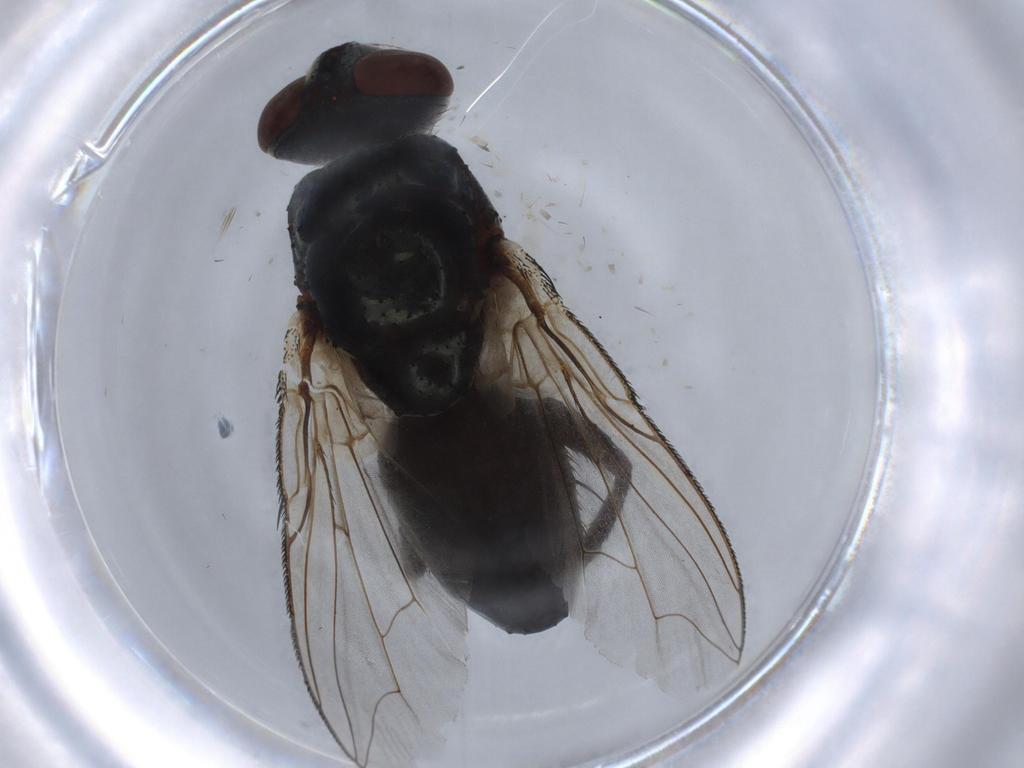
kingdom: Animalia
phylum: Arthropoda
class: Insecta
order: Diptera
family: Sarcophagidae
